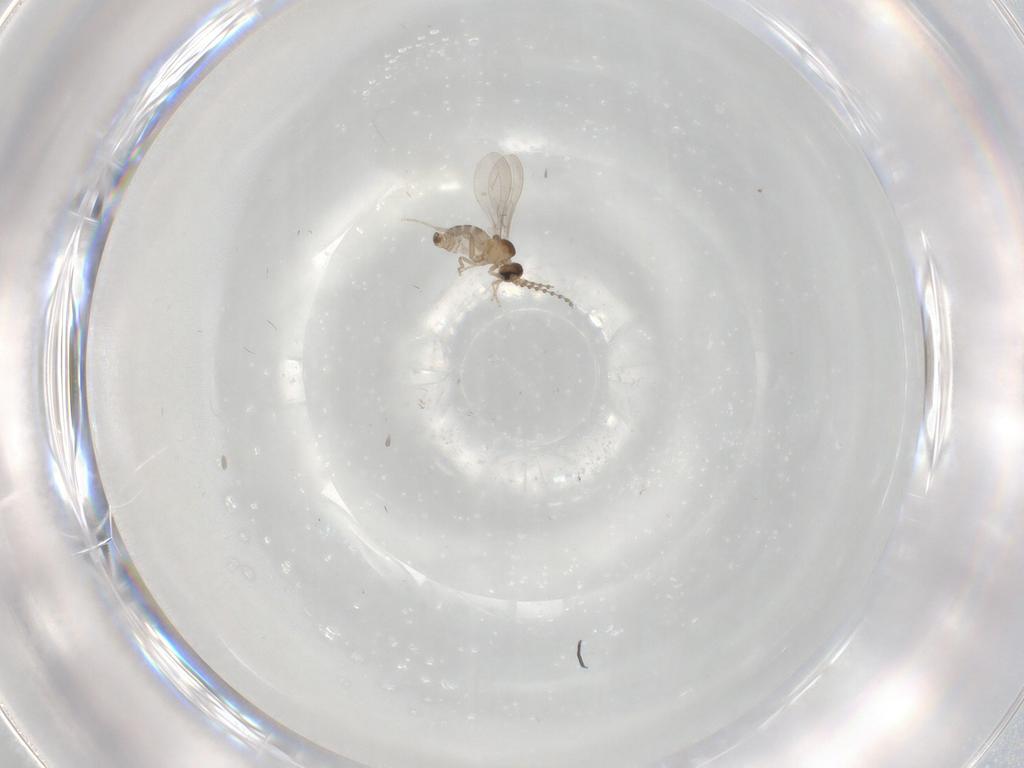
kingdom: Animalia
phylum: Arthropoda
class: Insecta
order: Diptera
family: Cecidomyiidae
